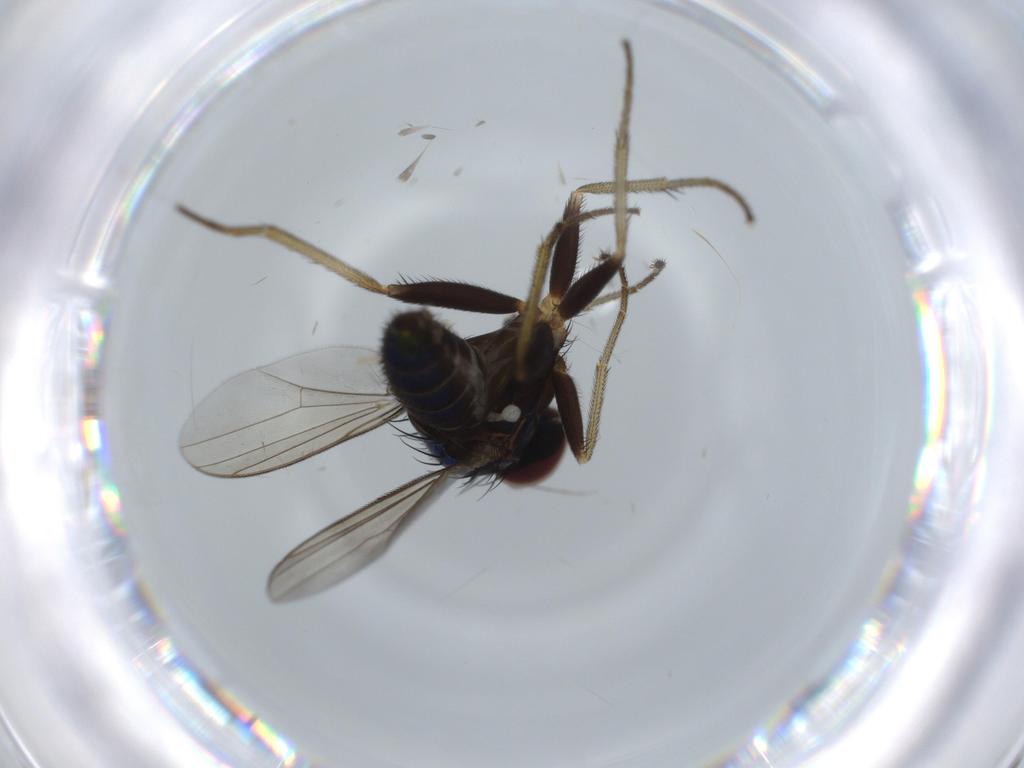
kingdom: Animalia
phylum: Arthropoda
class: Insecta
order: Diptera
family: Dolichopodidae
